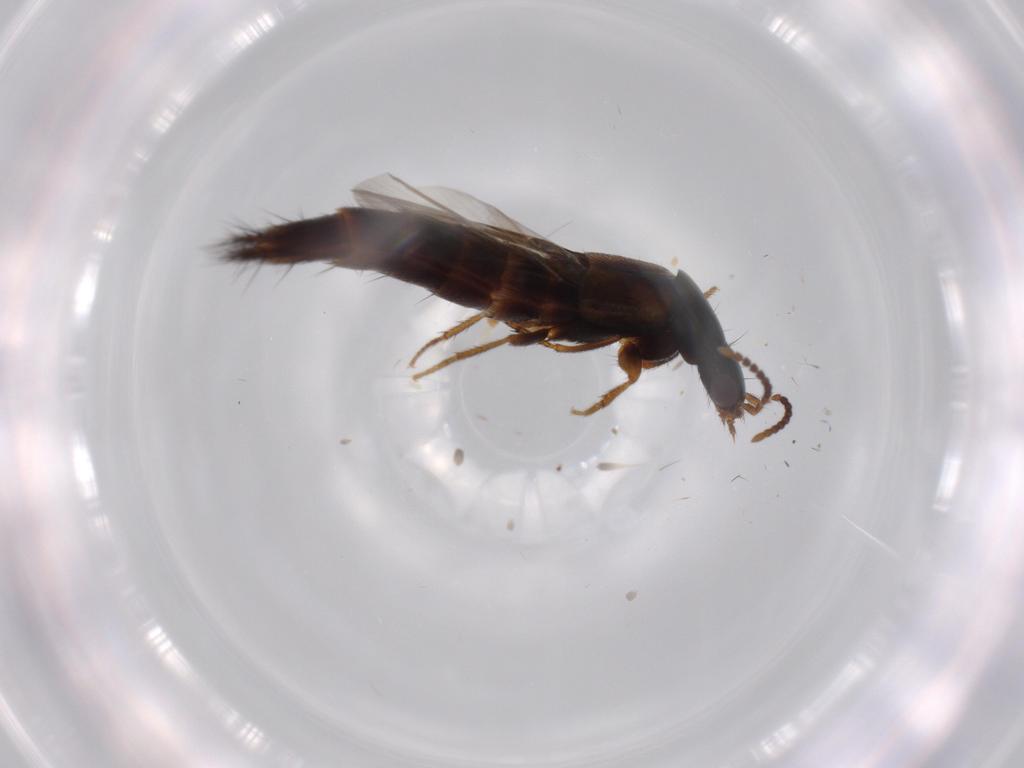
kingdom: Animalia
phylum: Arthropoda
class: Insecta
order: Coleoptera
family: Staphylinidae
